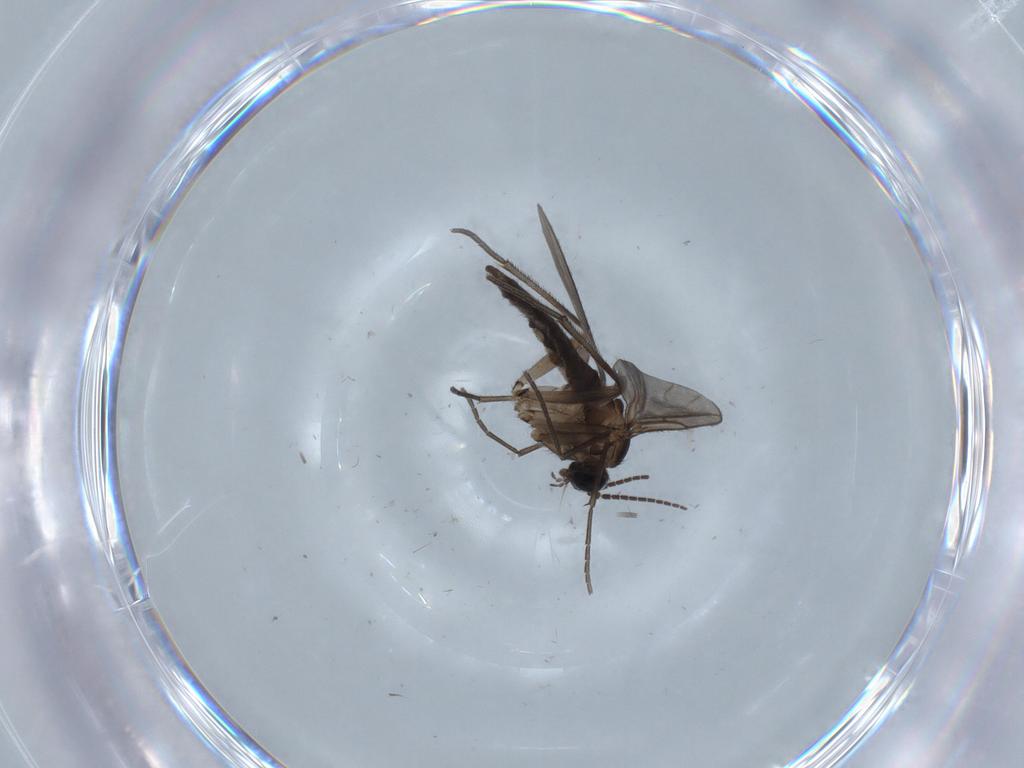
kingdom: Animalia
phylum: Arthropoda
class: Insecta
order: Diptera
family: Sciaridae
